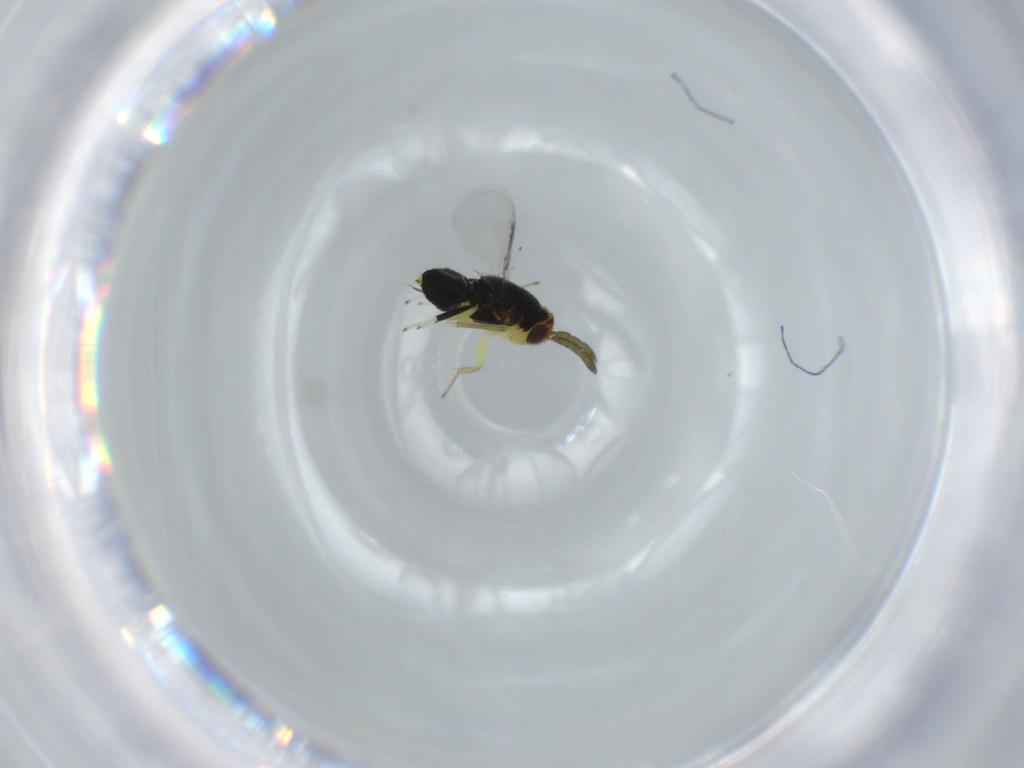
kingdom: Animalia
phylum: Arthropoda
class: Insecta
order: Hymenoptera
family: Aphelinidae
